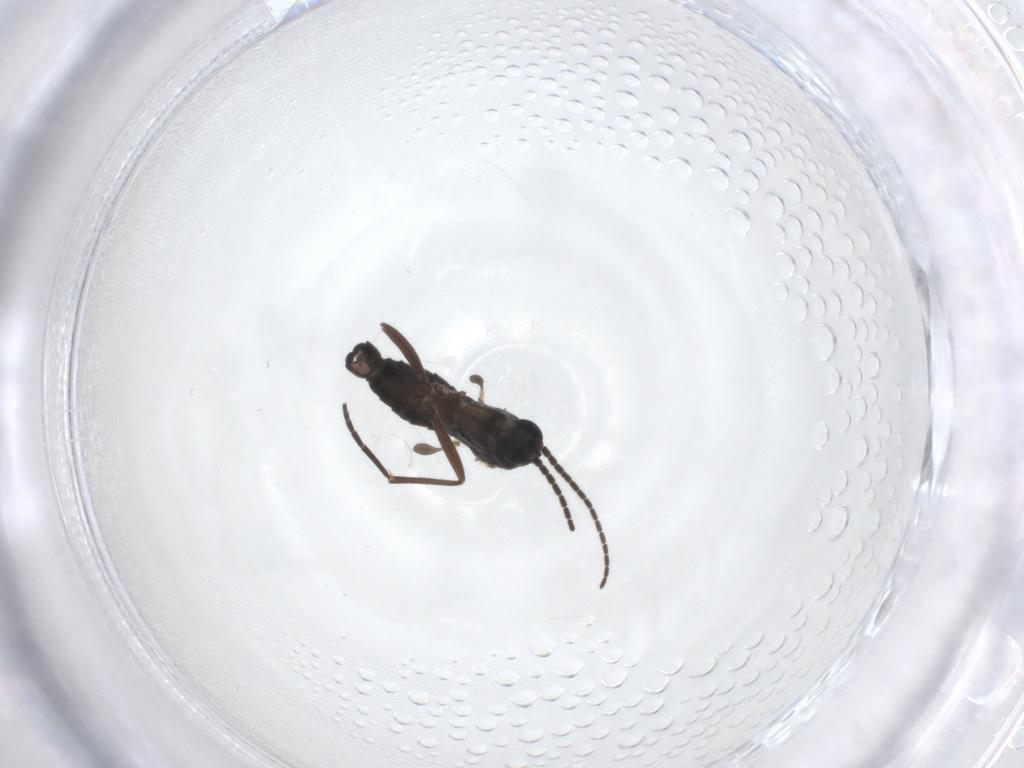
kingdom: Animalia
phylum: Arthropoda
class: Insecta
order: Diptera
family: Sciaridae
